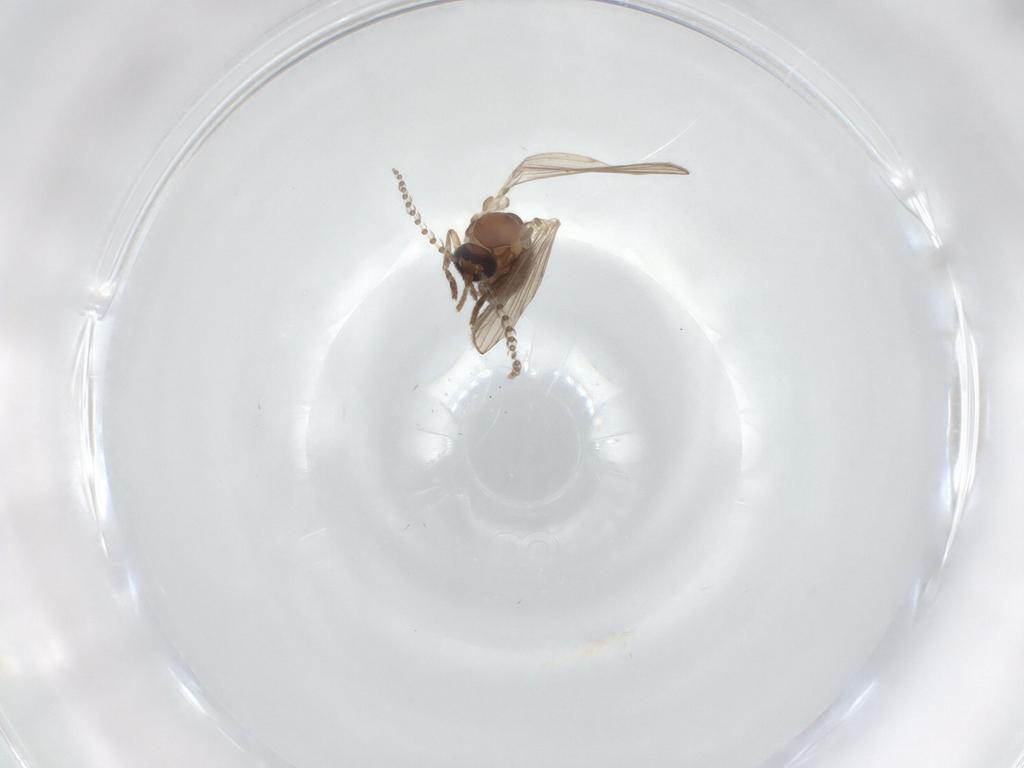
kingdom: Animalia
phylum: Arthropoda
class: Insecta
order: Diptera
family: Psychodidae
